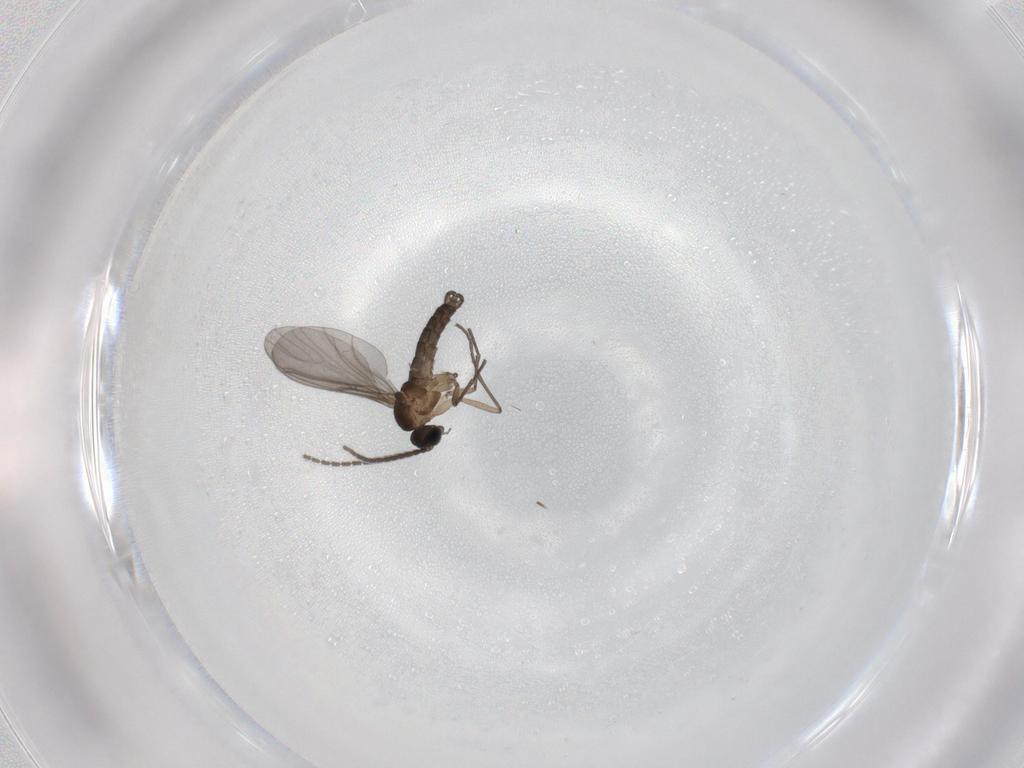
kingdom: Animalia
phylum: Arthropoda
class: Insecta
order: Diptera
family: Sciaridae
